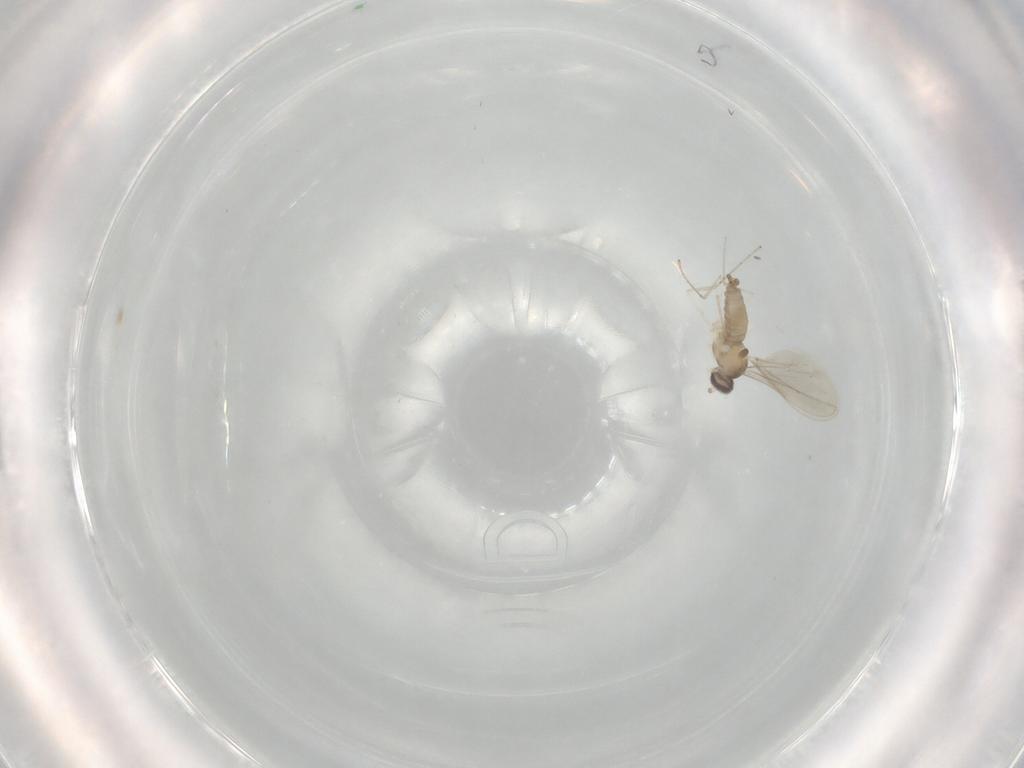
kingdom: Animalia
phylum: Arthropoda
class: Insecta
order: Diptera
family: Cecidomyiidae
